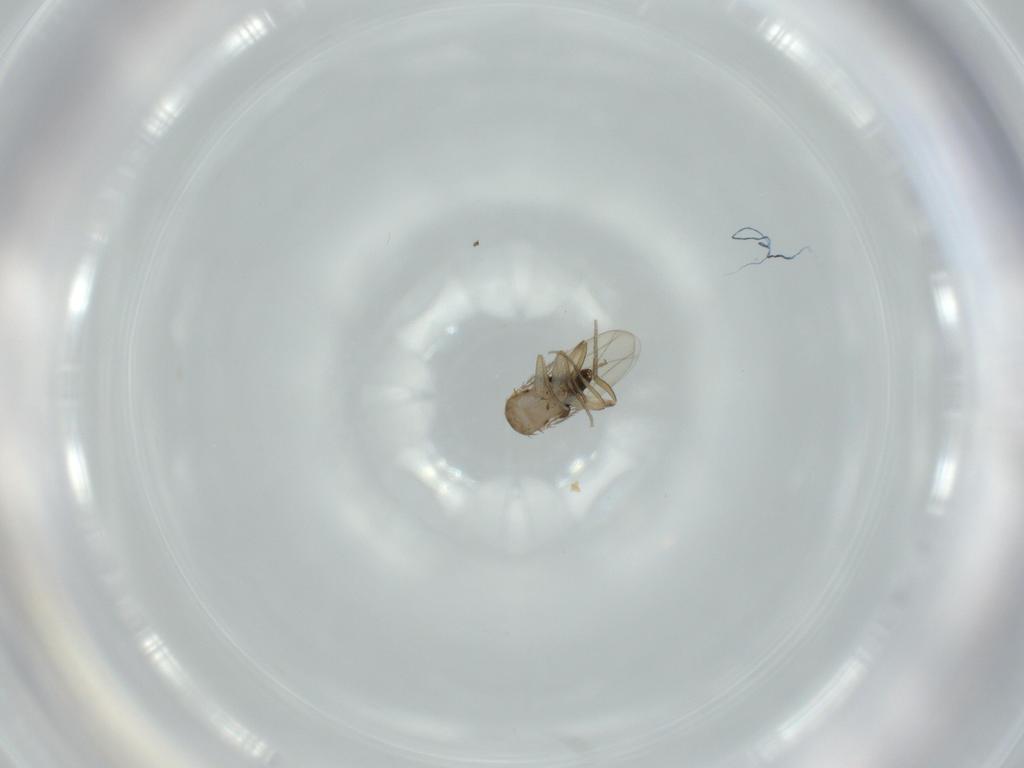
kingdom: Animalia
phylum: Arthropoda
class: Insecta
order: Diptera
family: Phoridae
